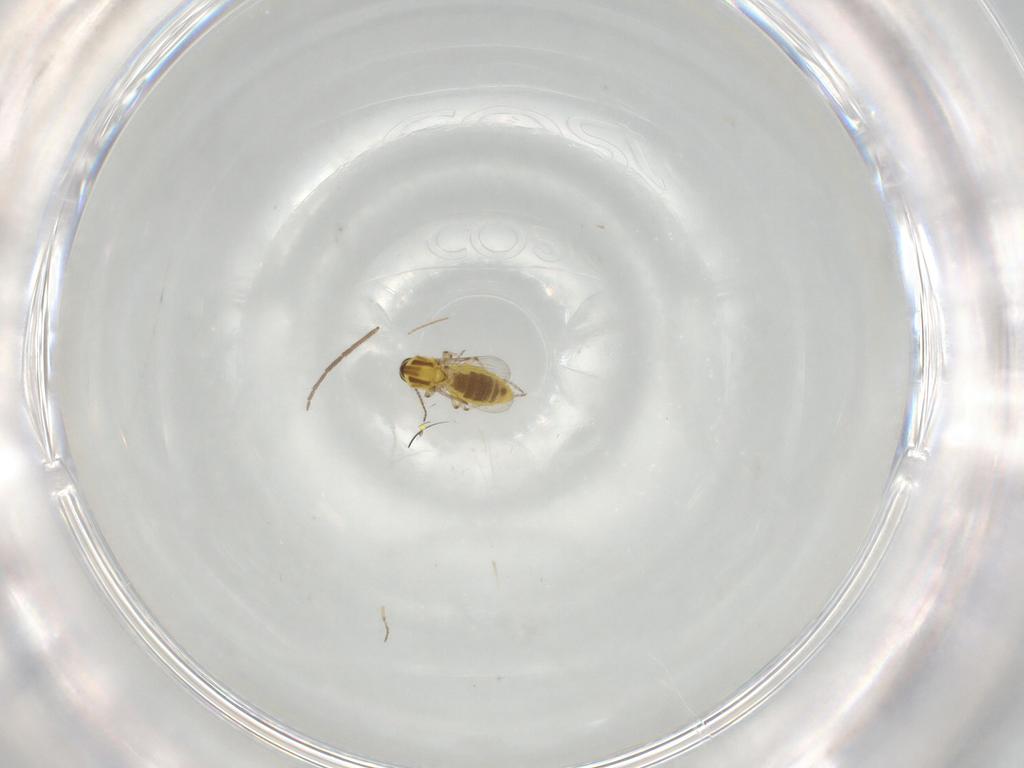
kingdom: Animalia
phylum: Arthropoda
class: Insecta
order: Diptera
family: Ceratopogonidae
